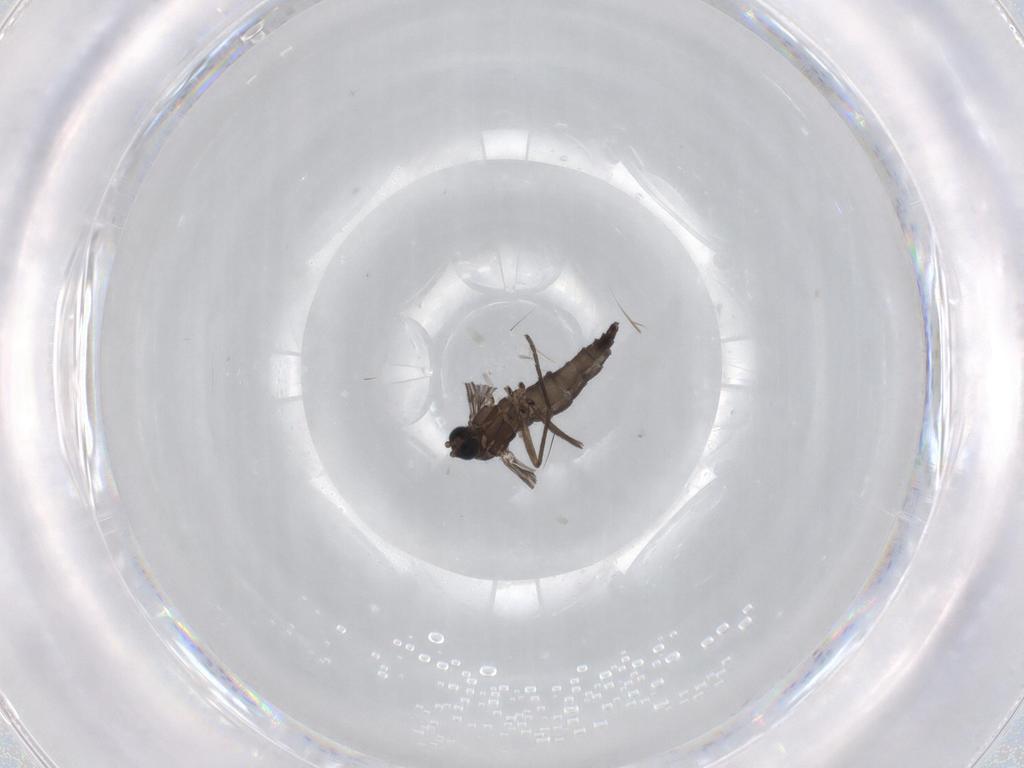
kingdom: Animalia
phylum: Arthropoda
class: Insecta
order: Diptera
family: Sciaridae
